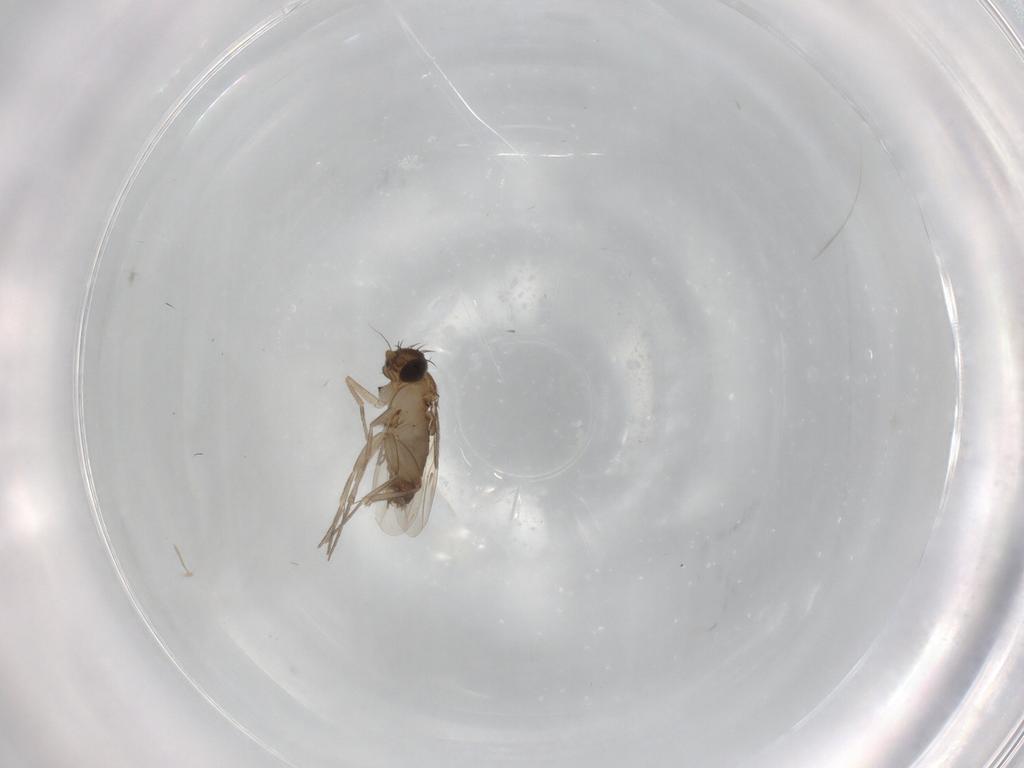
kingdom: Animalia
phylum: Arthropoda
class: Insecta
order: Diptera
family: Phoridae
